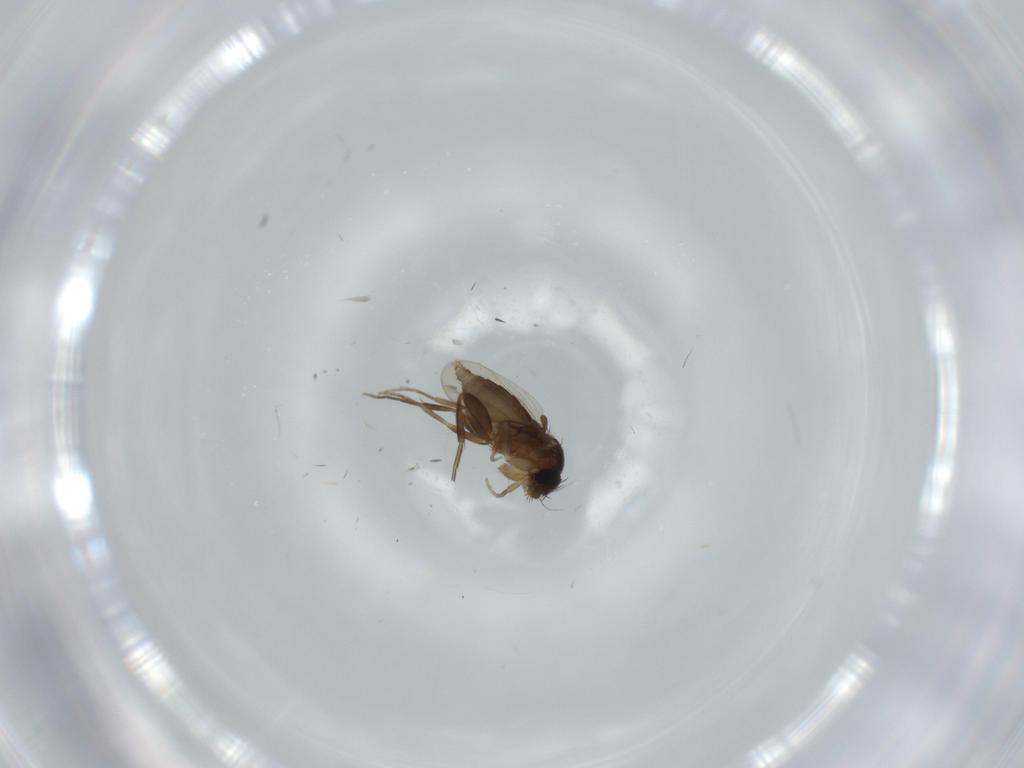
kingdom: Animalia
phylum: Arthropoda
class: Insecta
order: Diptera
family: Phoridae
